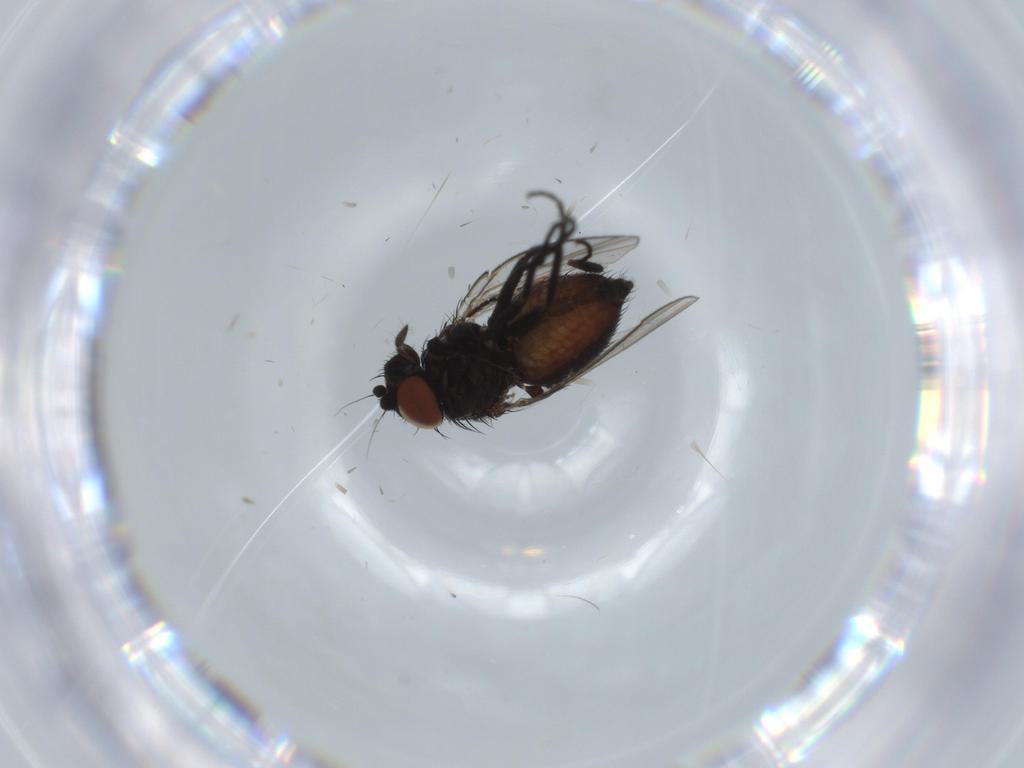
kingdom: Animalia
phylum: Arthropoda
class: Insecta
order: Diptera
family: Milichiidae
